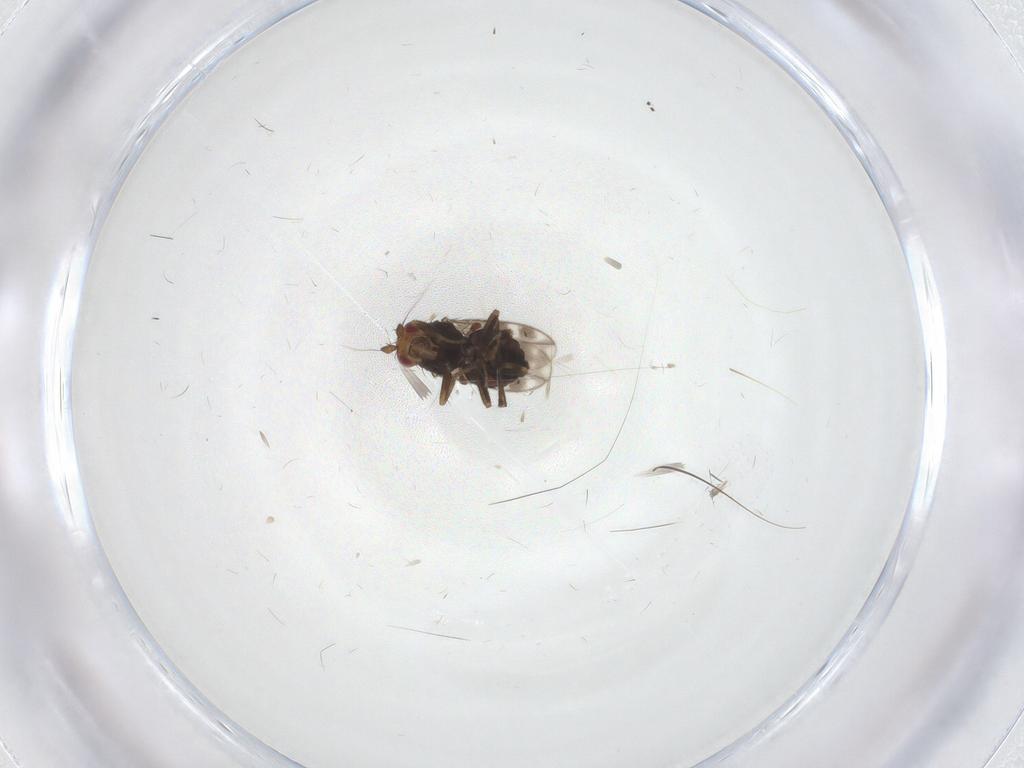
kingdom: Animalia
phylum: Arthropoda
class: Insecta
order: Diptera
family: Sphaeroceridae
